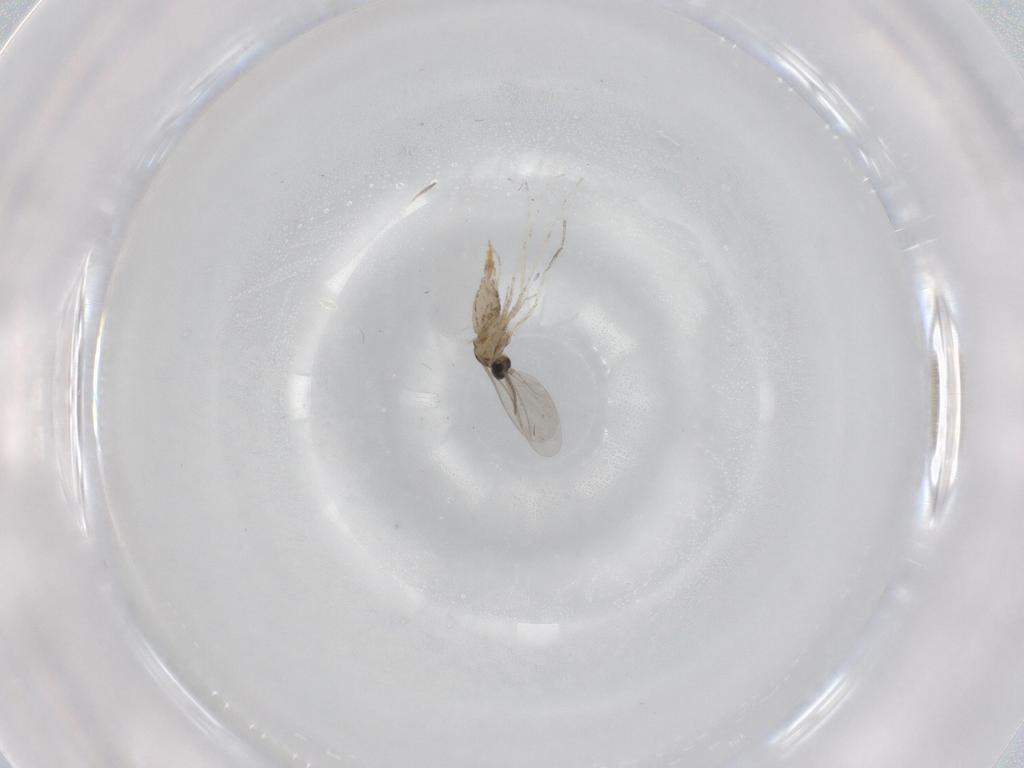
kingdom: Animalia
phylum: Arthropoda
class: Insecta
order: Diptera
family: Cecidomyiidae
